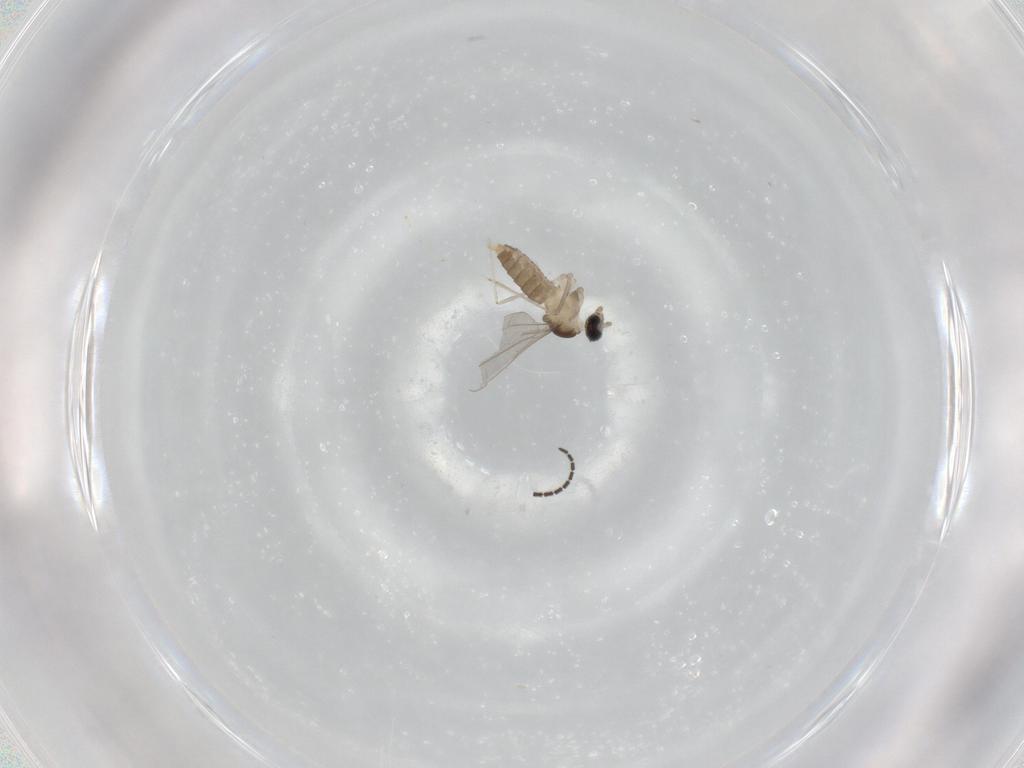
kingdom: Animalia
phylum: Arthropoda
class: Insecta
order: Diptera
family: Cecidomyiidae
